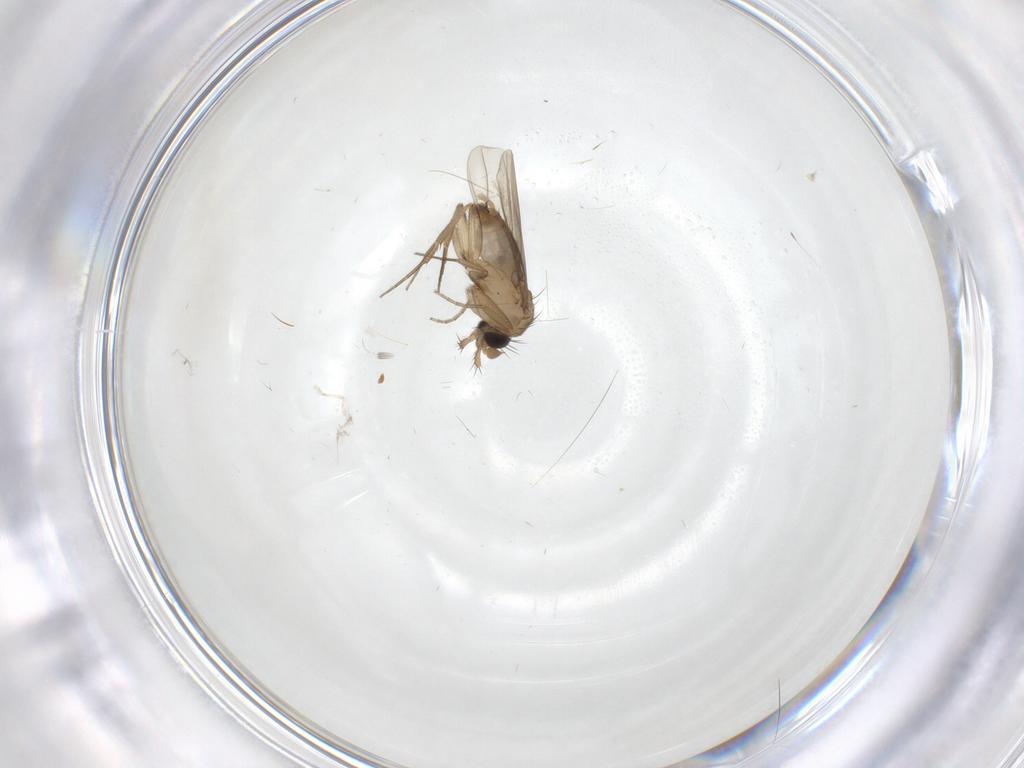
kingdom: Animalia
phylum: Arthropoda
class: Insecta
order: Diptera
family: Phoridae
